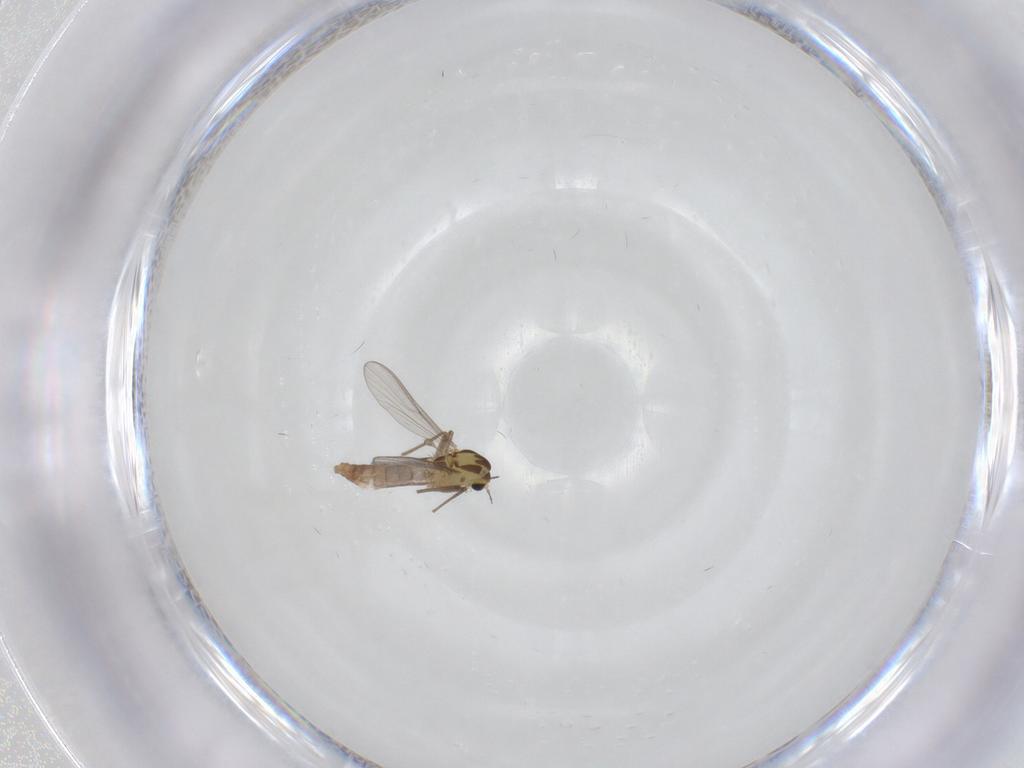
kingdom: Animalia
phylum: Arthropoda
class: Insecta
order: Diptera
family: Chironomidae
